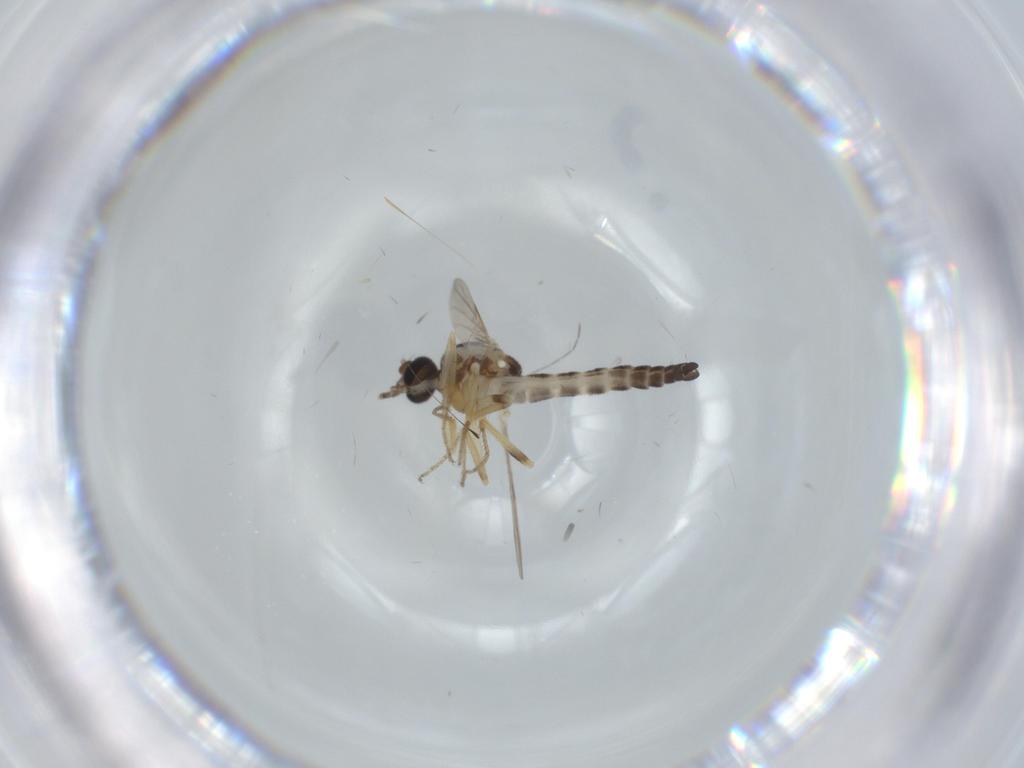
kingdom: Animalia
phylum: Arthropoda
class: Insecta
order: Diptera
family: Ceratopogonidae
